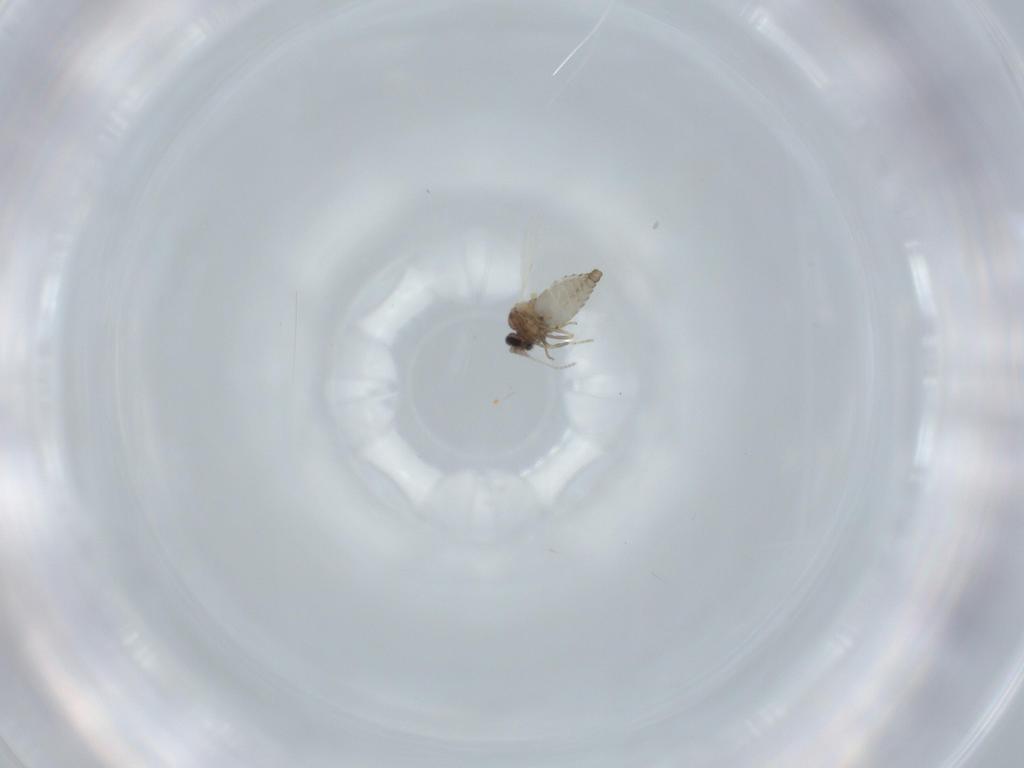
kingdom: Animalia
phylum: Arthropoda
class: Insecta
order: Diptera
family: Ceratopogonidae
